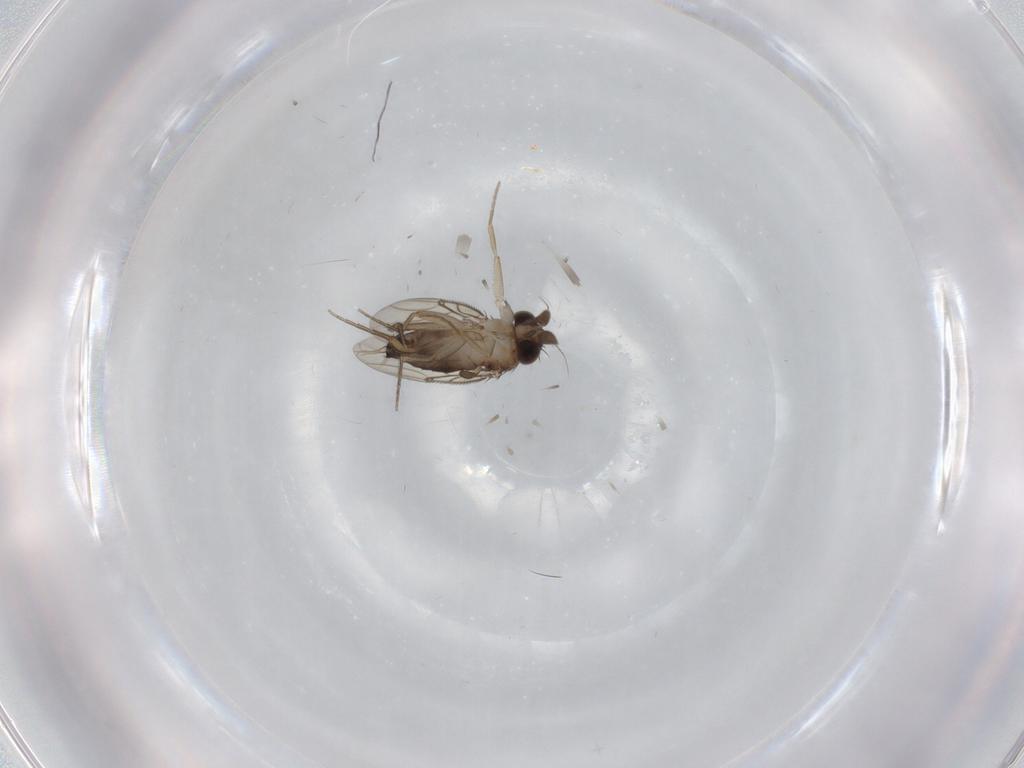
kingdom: Animalia
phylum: Arthropoda
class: Insecta
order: Diptera
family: Phoridae
